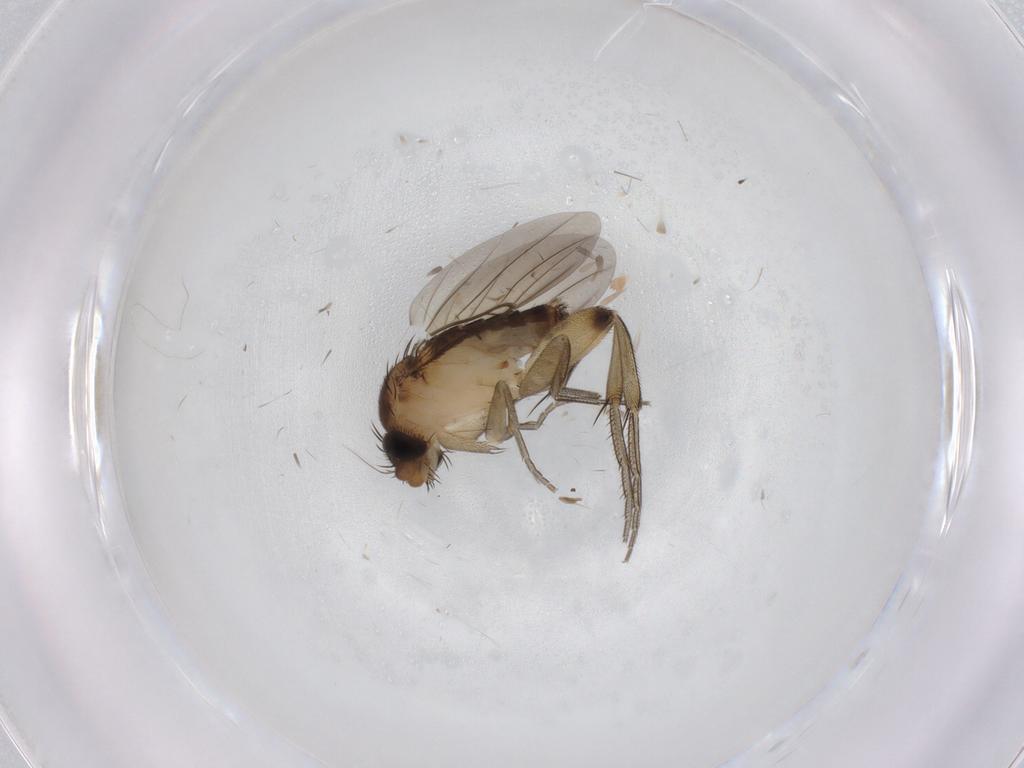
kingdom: Animalia
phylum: Arthropoda
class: Insecta
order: Diptera
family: Phoridae
